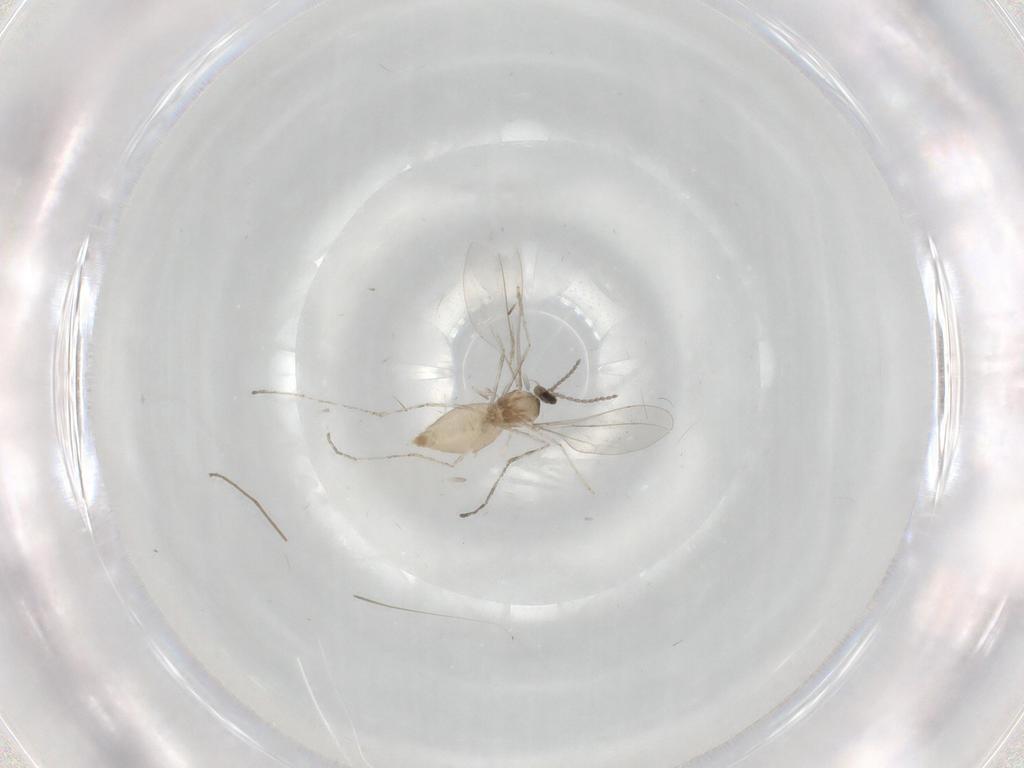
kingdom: Animalia
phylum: Arthropoda
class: Insecta
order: Diptera
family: Cecidomyiidae
